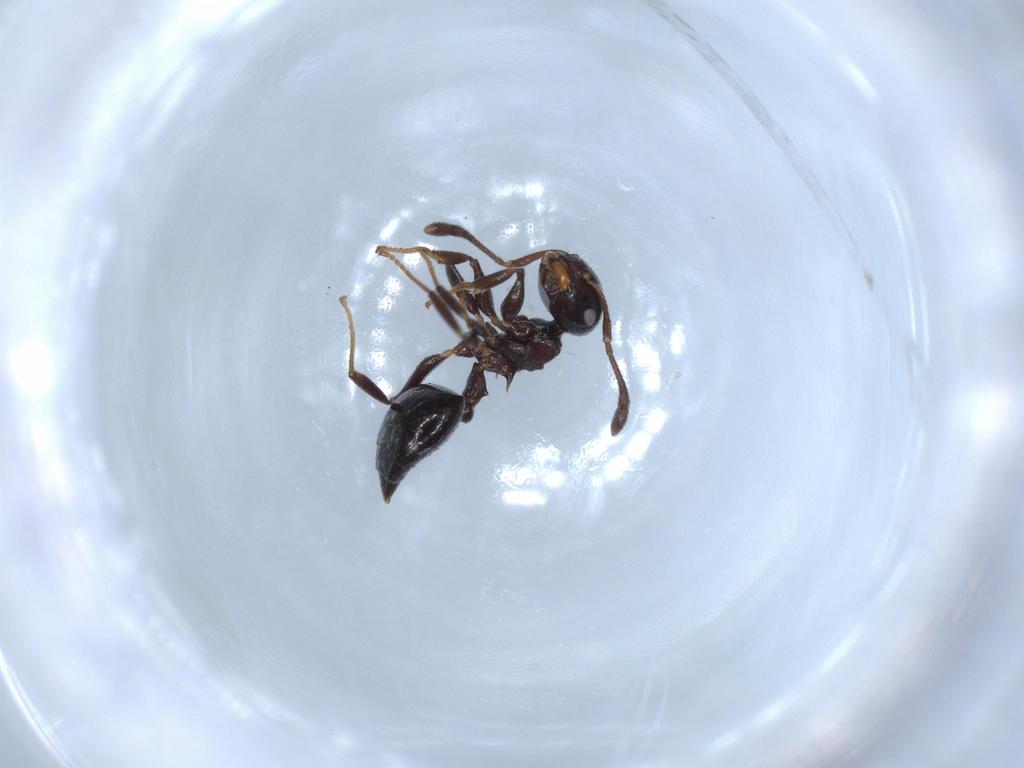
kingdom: Animalia
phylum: Arthropoda
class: Insecta
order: Hymenoptera
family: Formicidae
